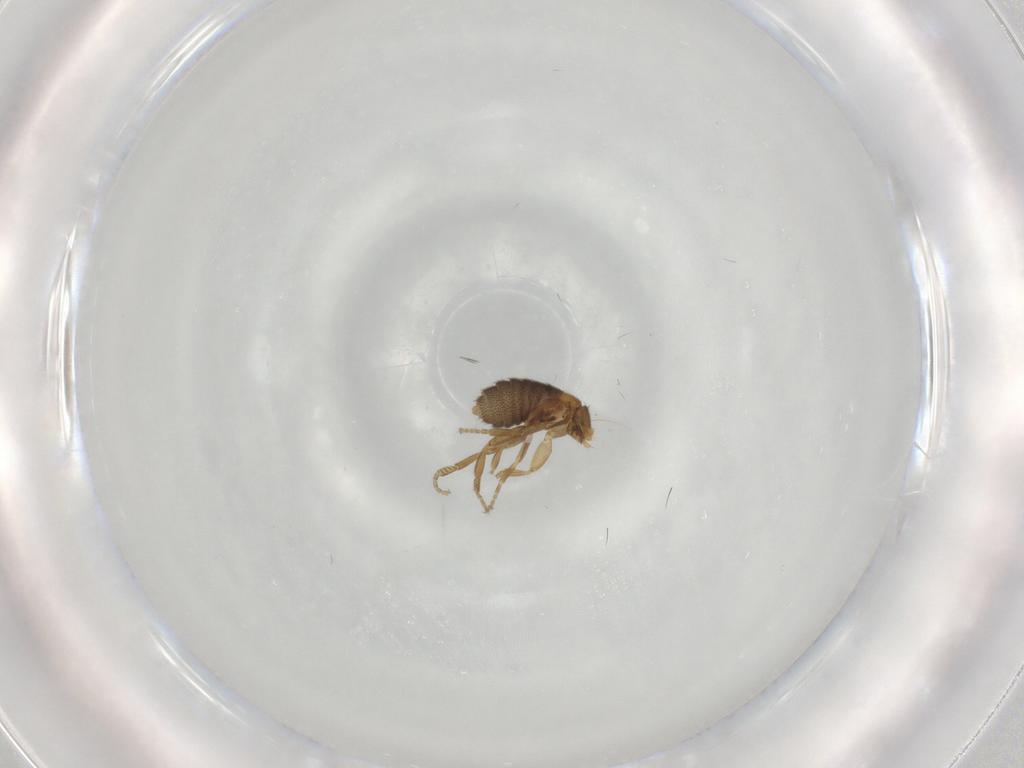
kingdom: Animalia
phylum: Arthropoda
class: Insecta
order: Diptera
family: Phoridae
